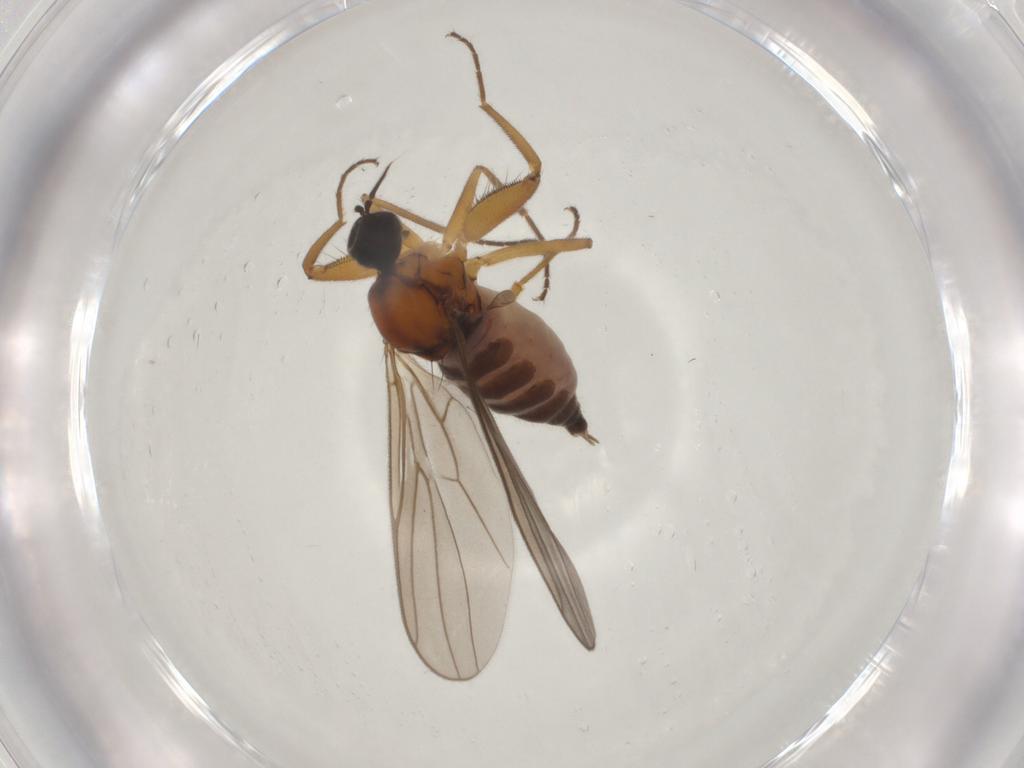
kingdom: Animalia
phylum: Arthropoda
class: Insecta
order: Diptera
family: Hybotidae
